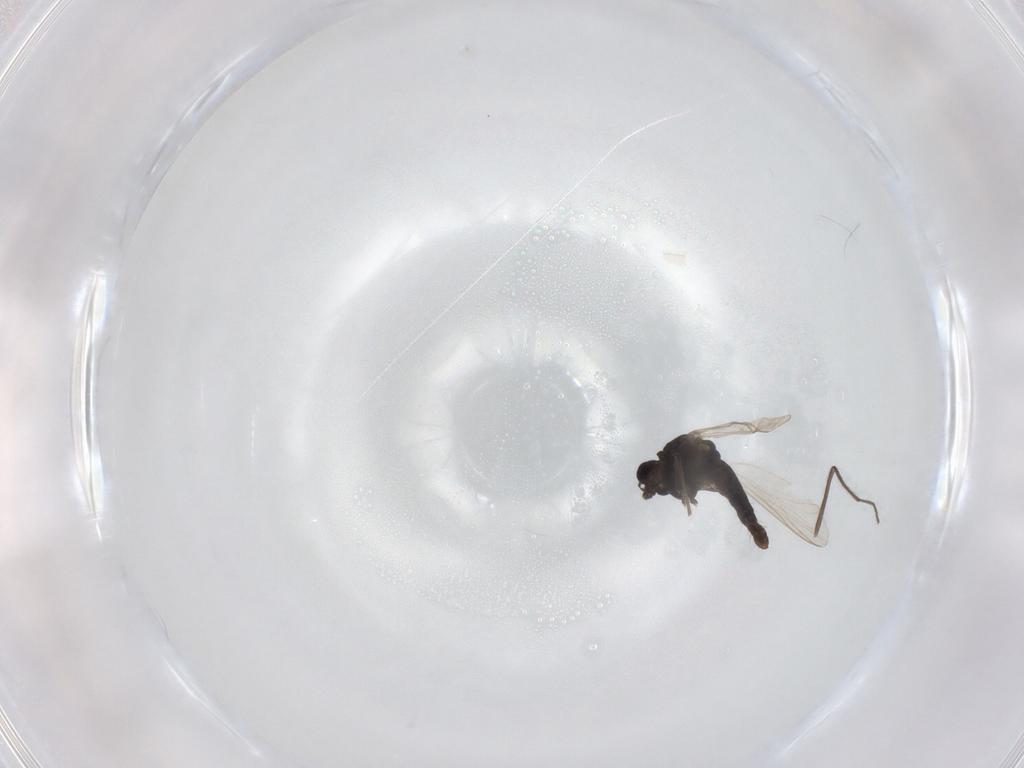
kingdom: Animalia
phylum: Arthropoda
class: Insecta
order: Diptera
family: Chironomidae
